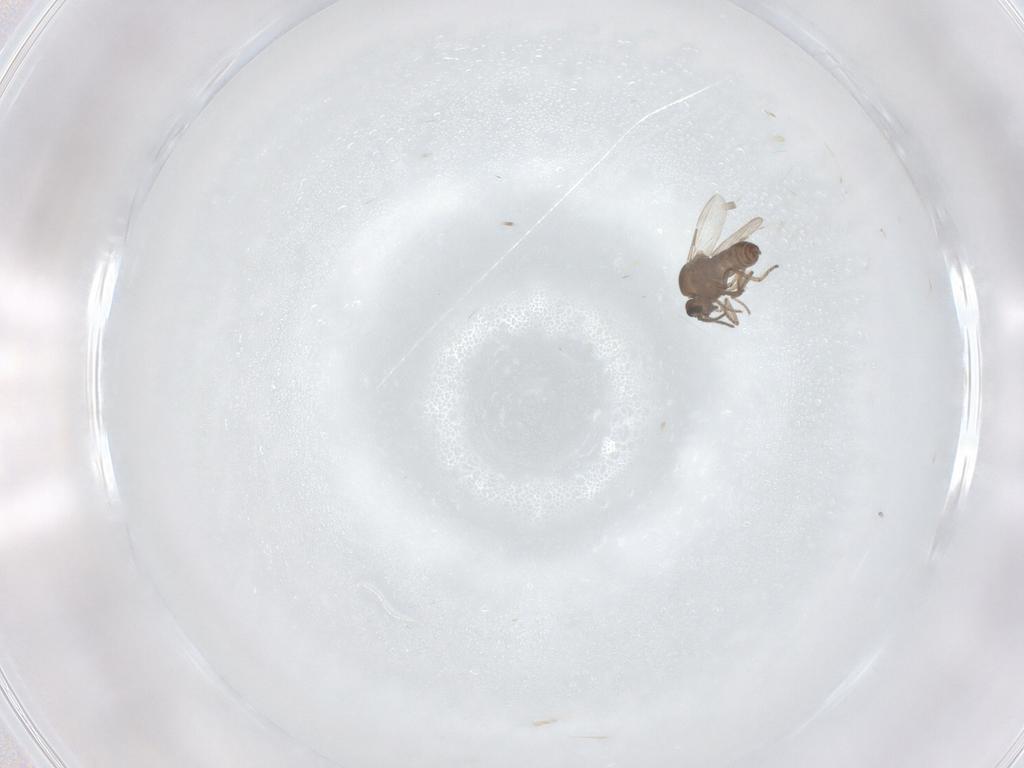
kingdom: Animalia
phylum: Arthropoda
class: Insecta
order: Diptera
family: Ceratopogonidae
